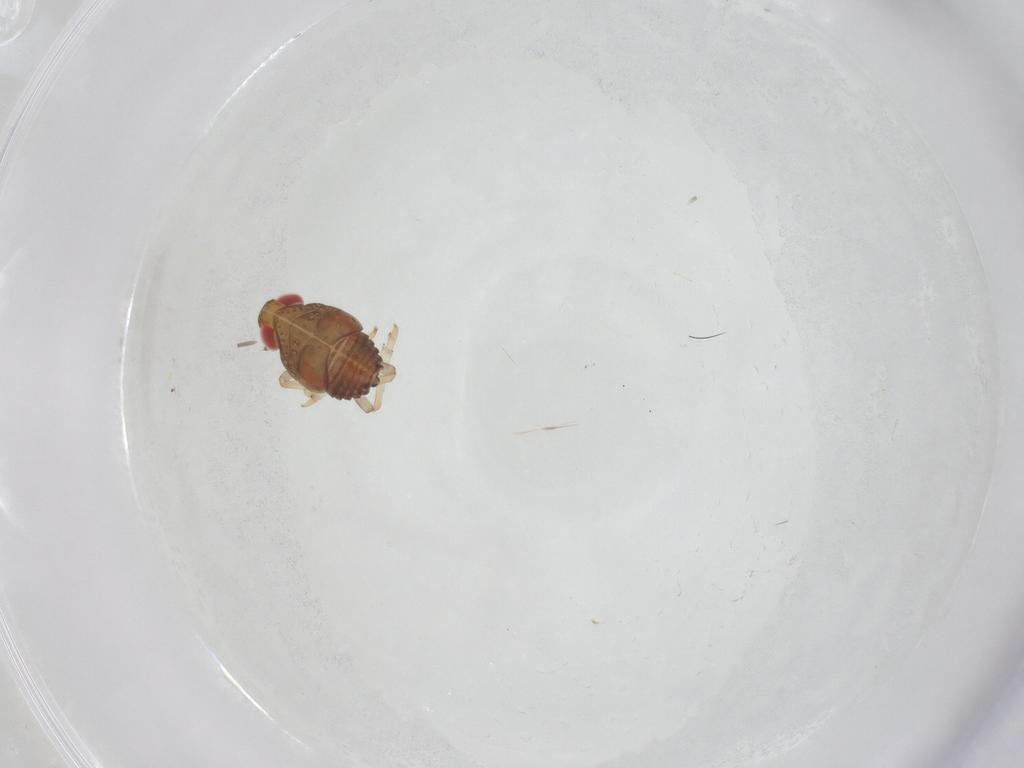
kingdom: Animalia
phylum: Arthropoda
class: Insecta
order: Hemiptera
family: Issidae
